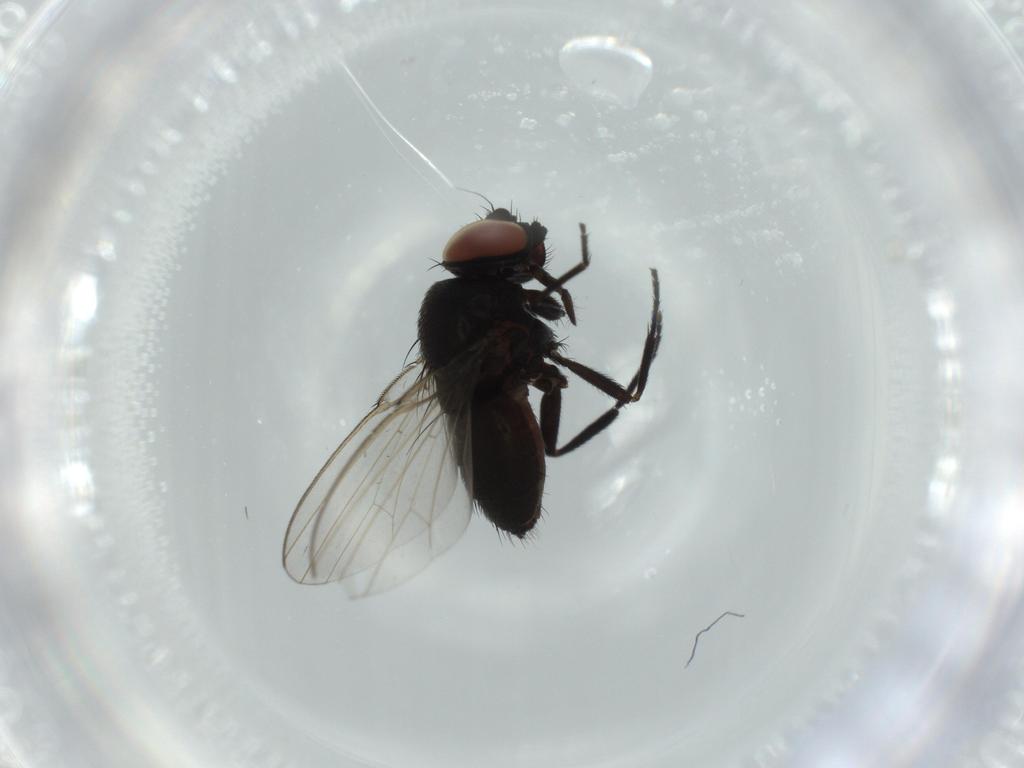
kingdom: Animalia
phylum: Arthropoda
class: Insecta
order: Diptera
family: Milichiidae
